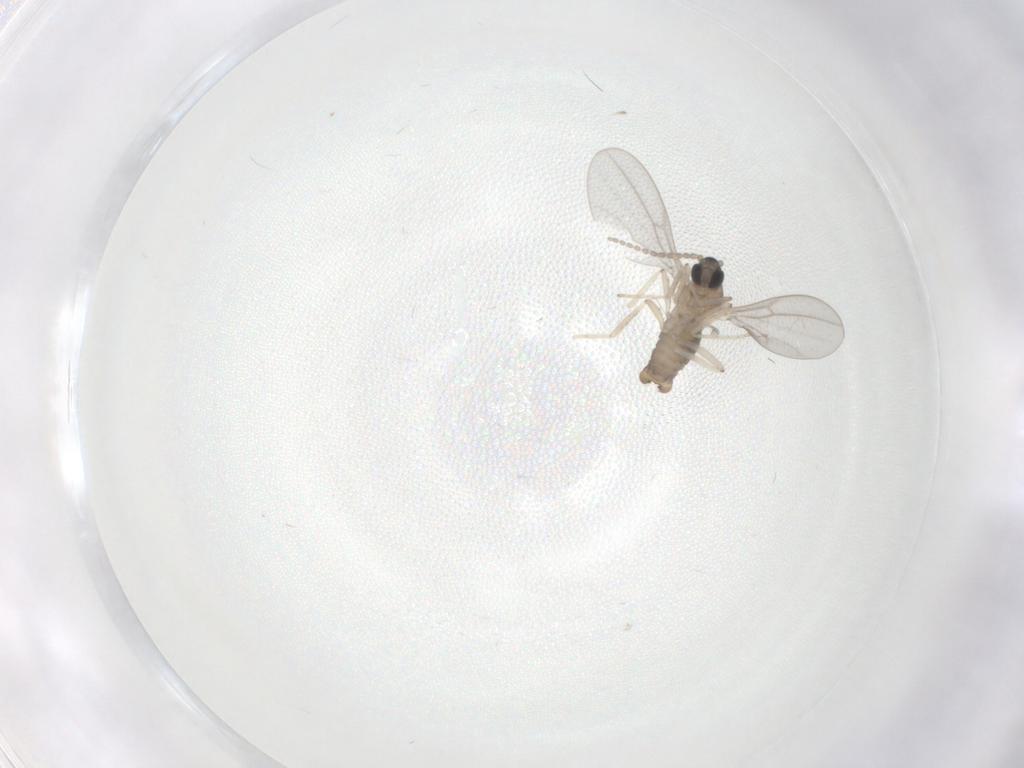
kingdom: Animalia
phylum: Arthropoda
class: Insecta
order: Diptera
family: Cecidomyiidae
